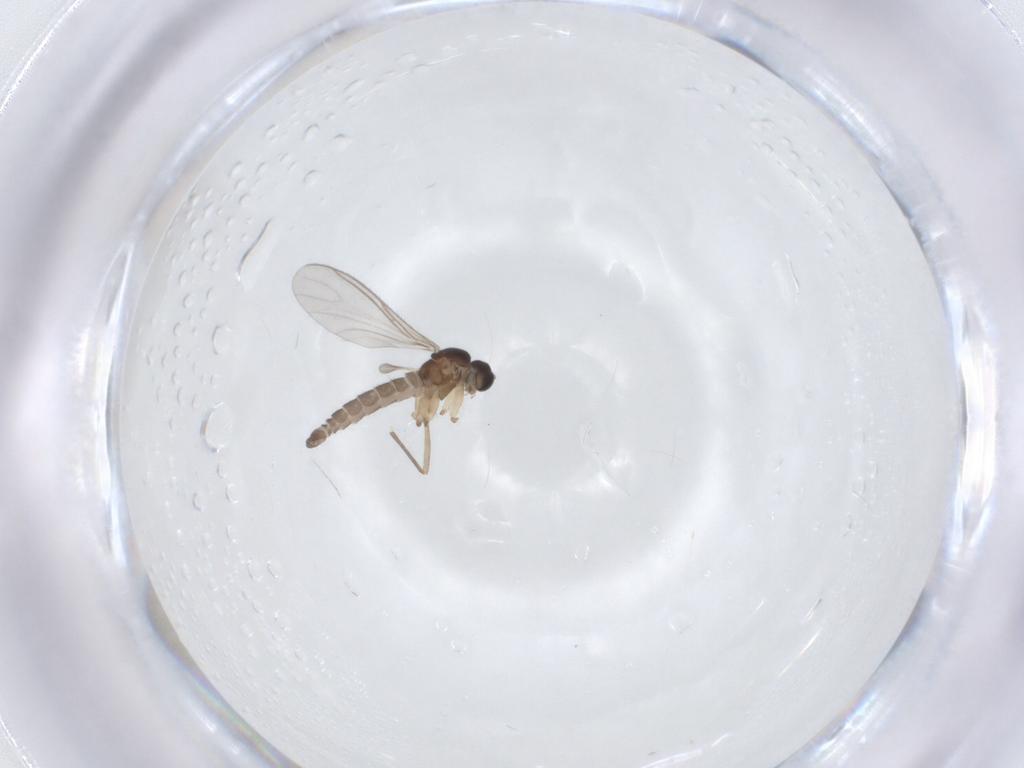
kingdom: Animalia
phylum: Arthropoda
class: Insecta
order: Diptera
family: Sciaridae
